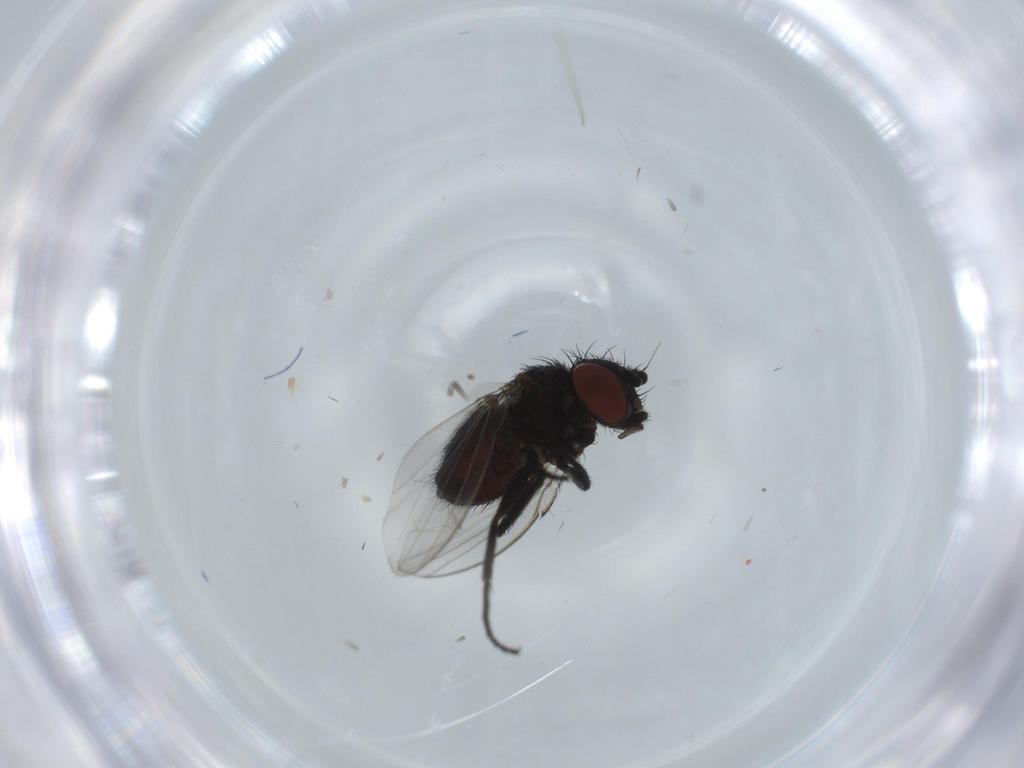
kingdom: Animalia
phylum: Arthropoda
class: Insecta
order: Diptera
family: Milichiidae
